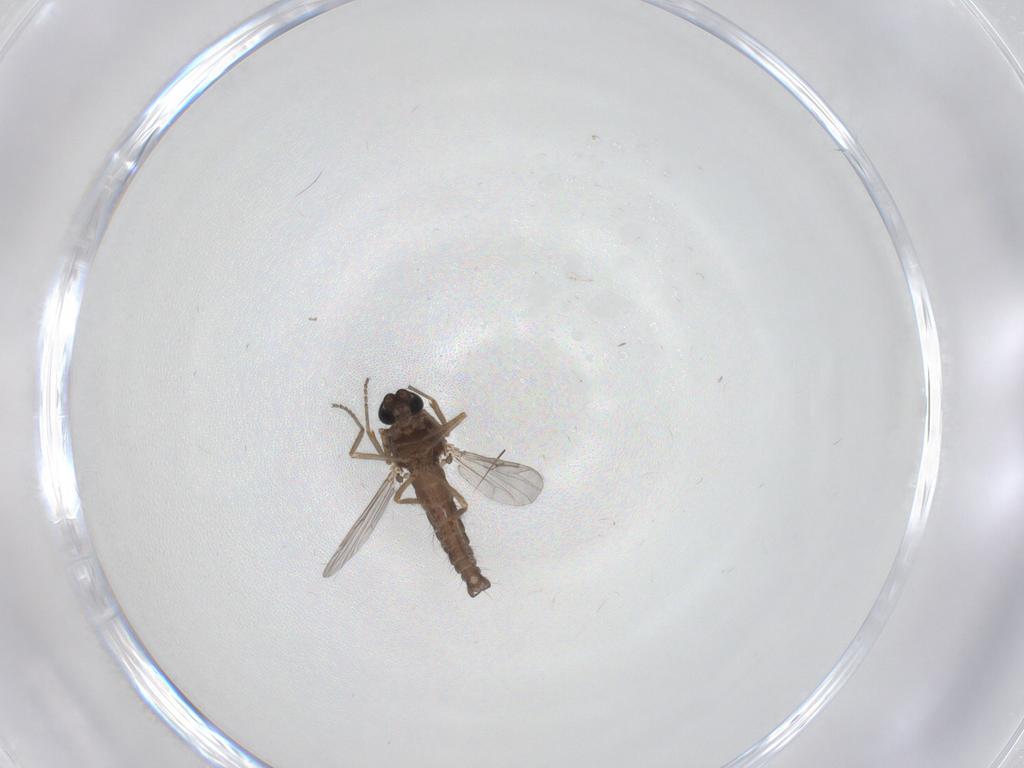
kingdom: Animalia
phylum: Arthropoda
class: Insecta
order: Diptera
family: Ceratopogonidae
